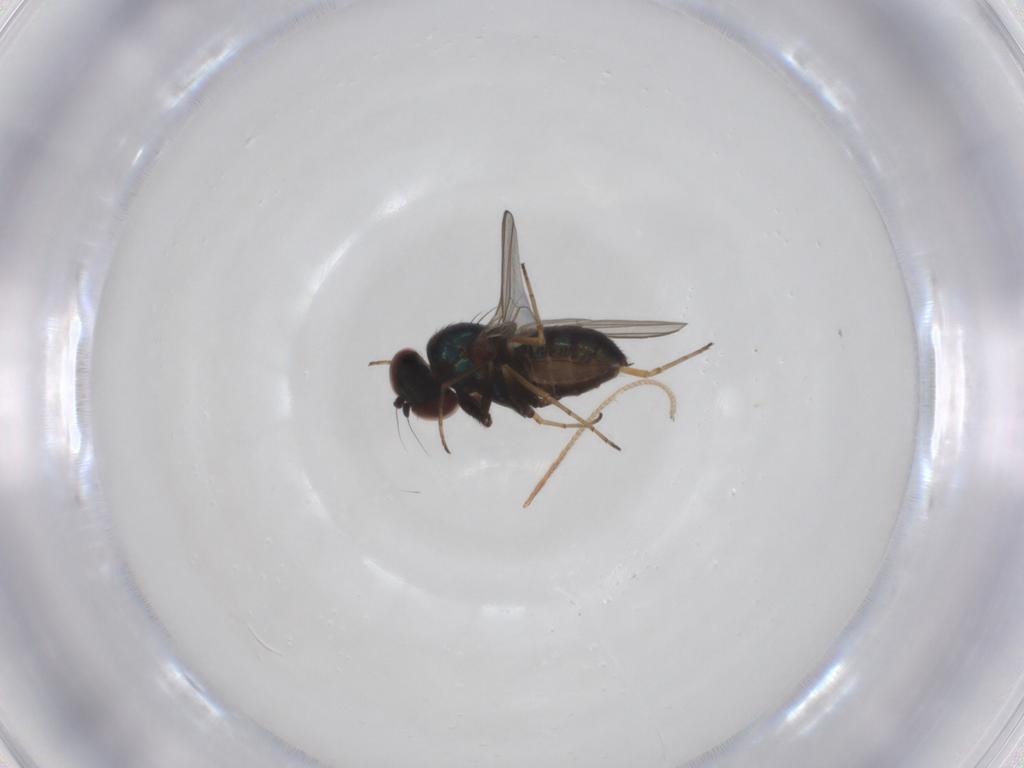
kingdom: Animalia
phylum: Arthropoda
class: Insecta
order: Diptera
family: Dolichopodidae
